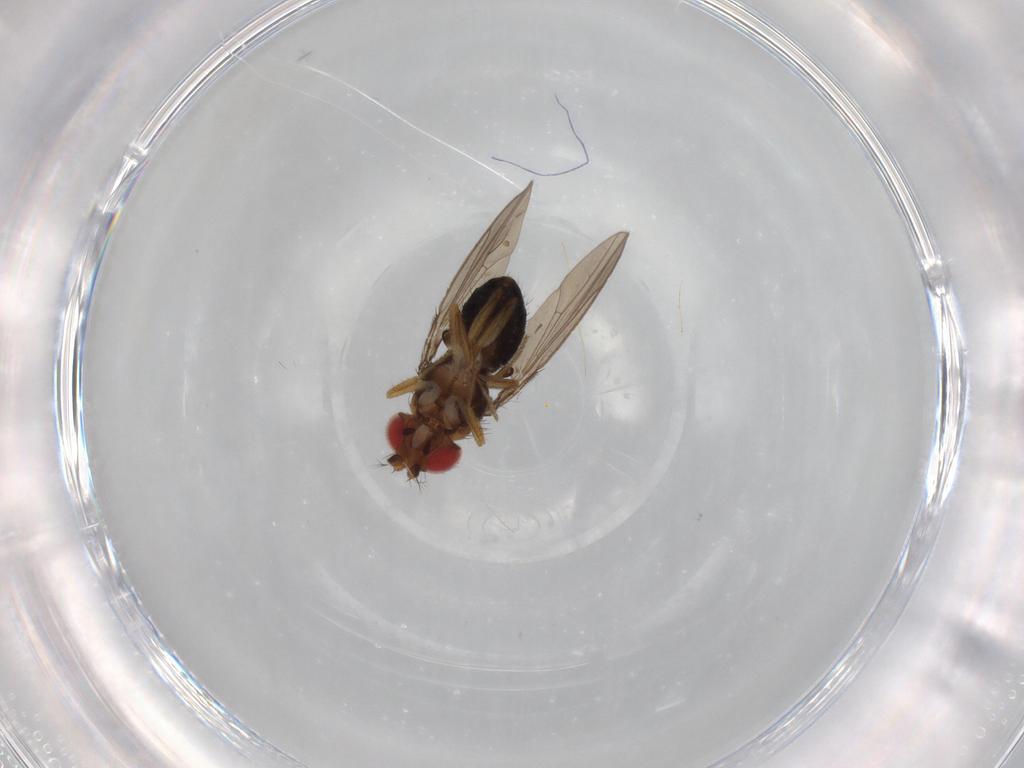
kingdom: Animalia
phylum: Arthropoda
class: Insecta
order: Diptera
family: Drosophilidae
